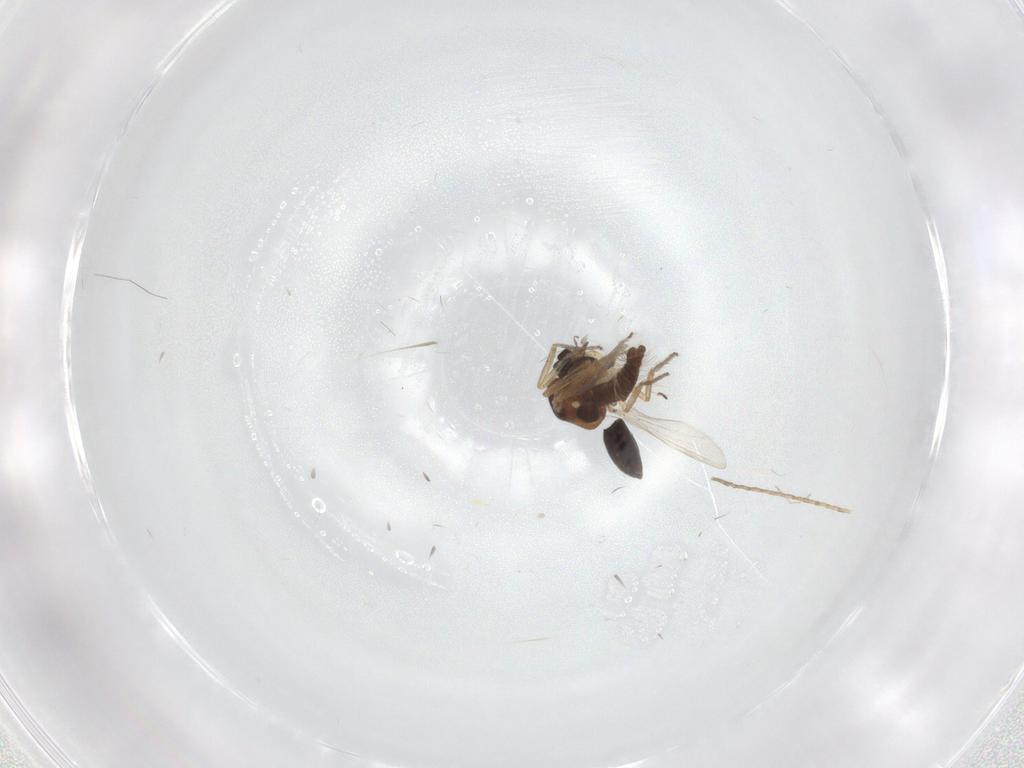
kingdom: Animalia
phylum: Arthropoda
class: Insecta
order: Diptera
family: Ceratopogonidae
